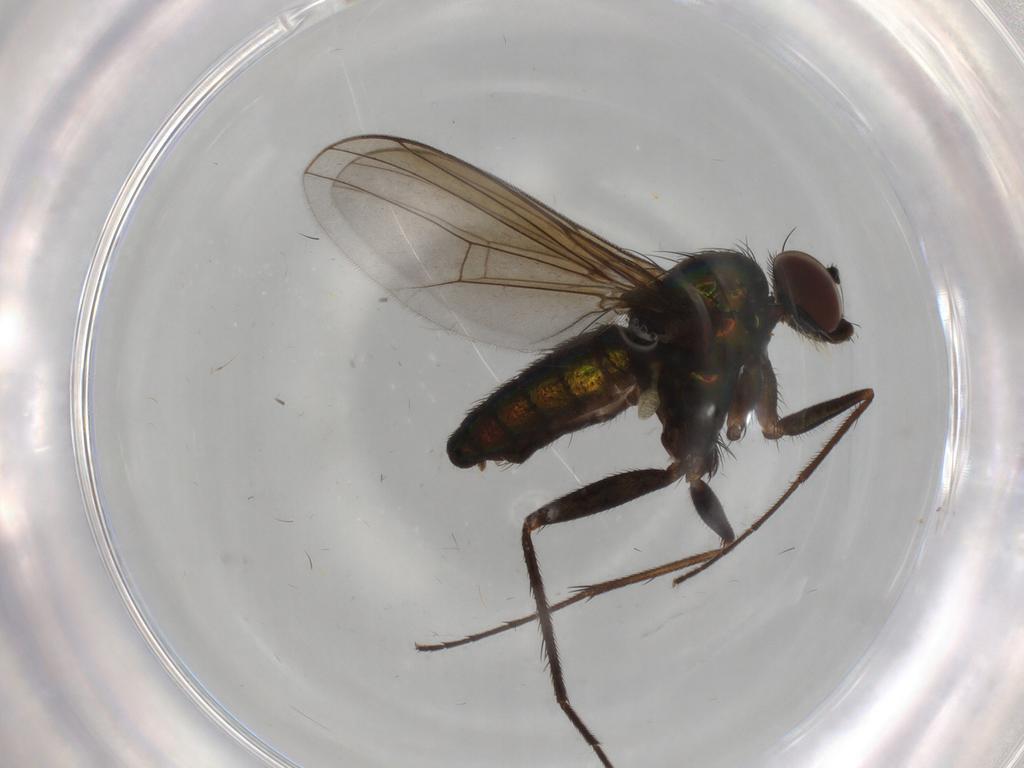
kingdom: Animalia
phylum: Arthropoda
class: Insecta
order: Diptera
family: Dolichopodidae
